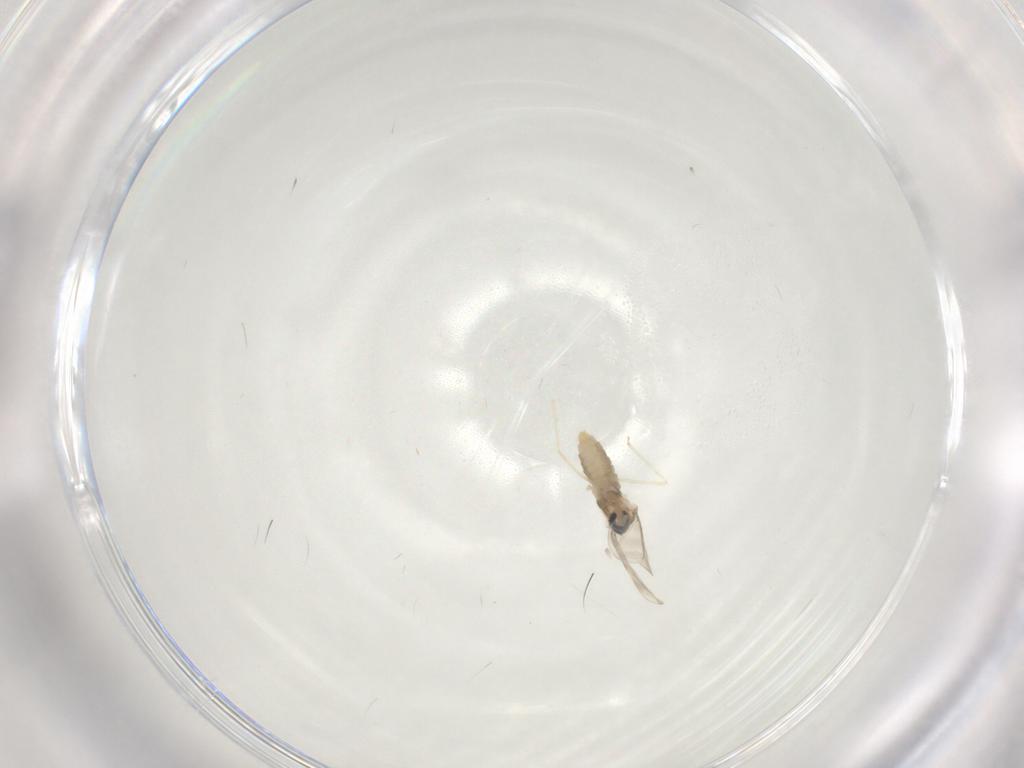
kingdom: Animalia
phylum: Arthropoda
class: Insecta
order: Diptera
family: Cecidomyiidae
